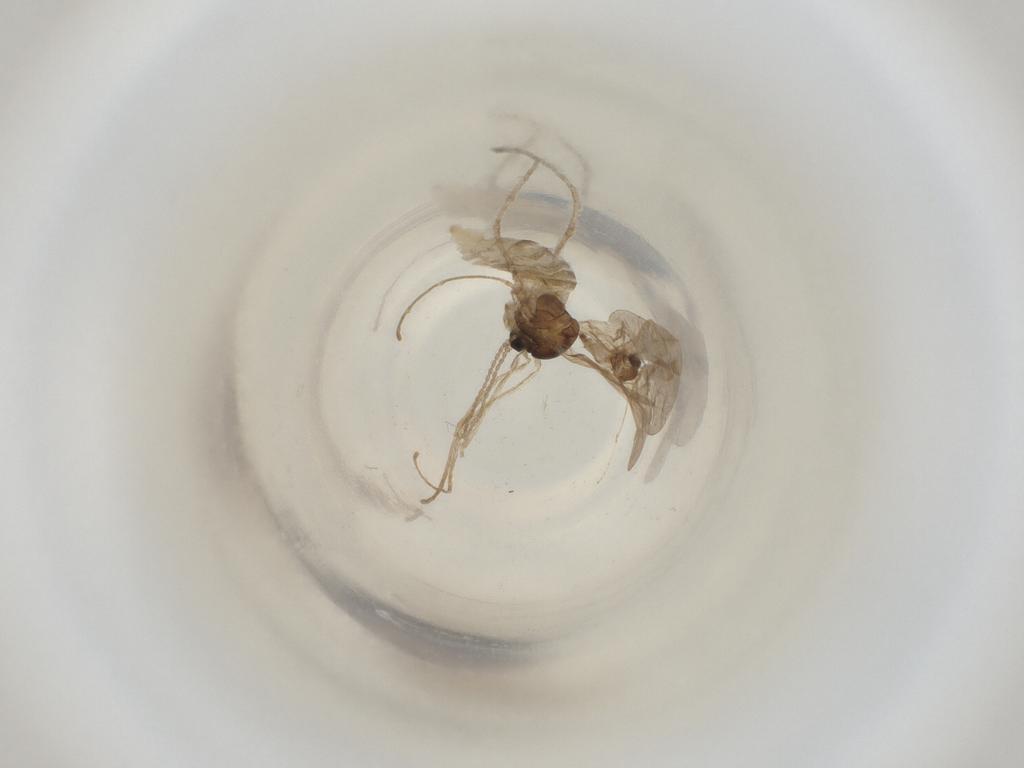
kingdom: Animalia
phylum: Arthropoda
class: Insecta
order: Diptera
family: Cecidomyiidae
